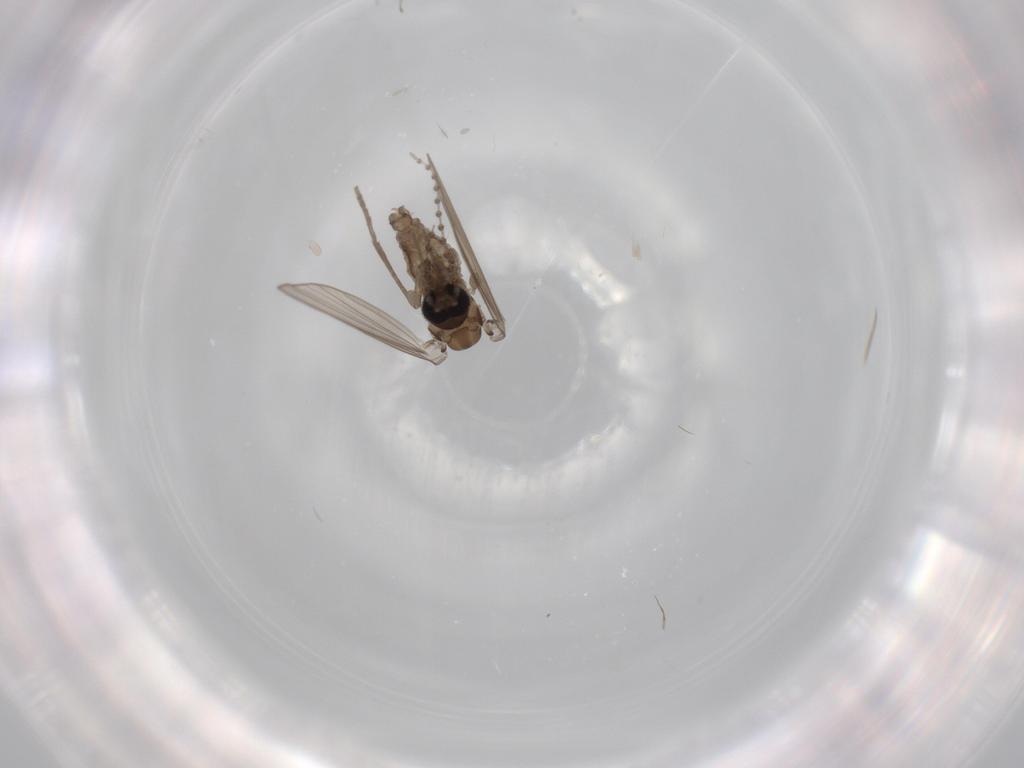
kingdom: Animalia
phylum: Arthropoda
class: Insecta
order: Diptera
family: Psychodidae
